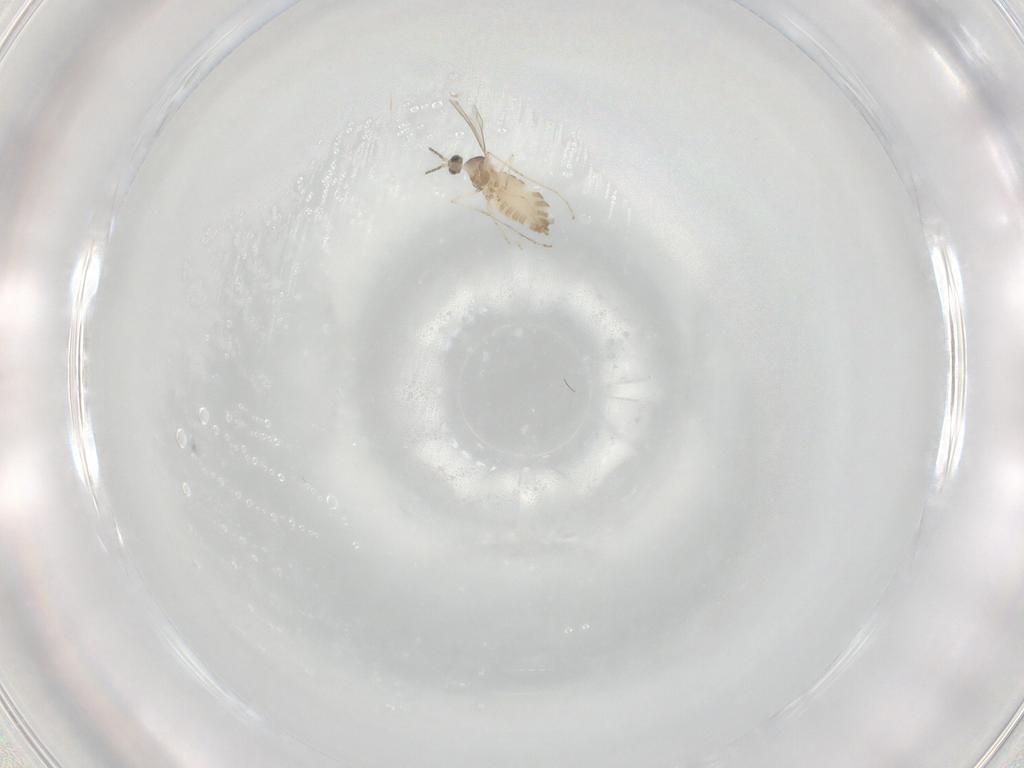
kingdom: Animalia
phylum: Arthropoda
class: Insecta
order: Diptera
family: Cecidomyiidae
